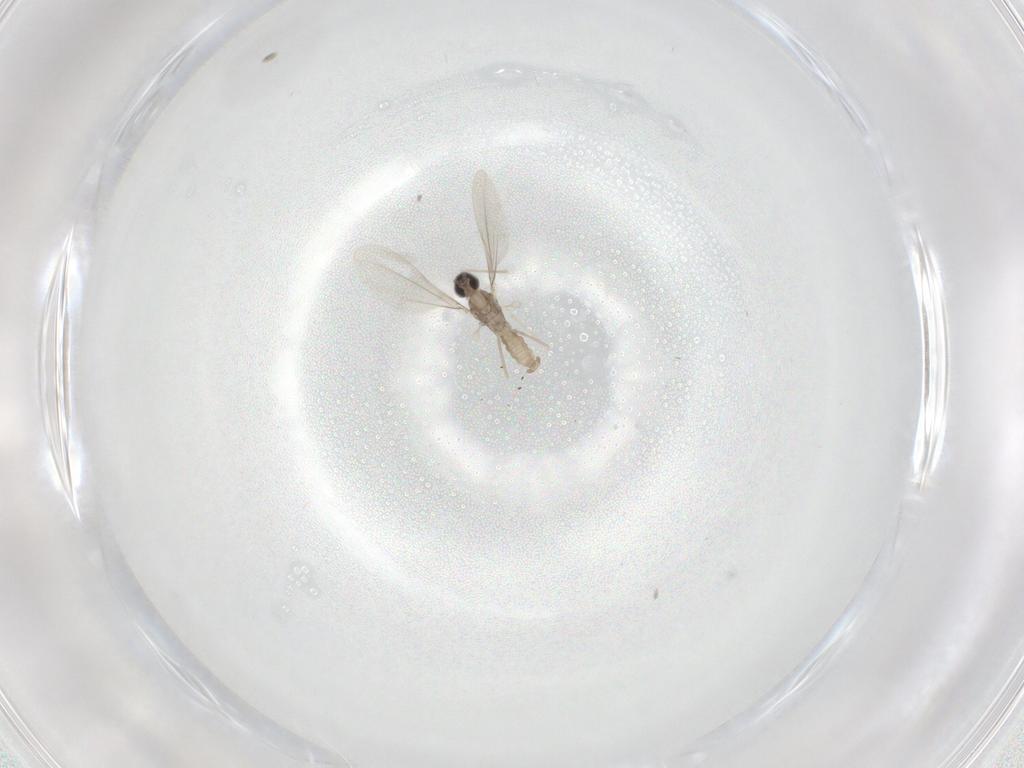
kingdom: Animalia
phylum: Arthropoda
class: Insecta
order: Diptera
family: Cecidomyiidae
